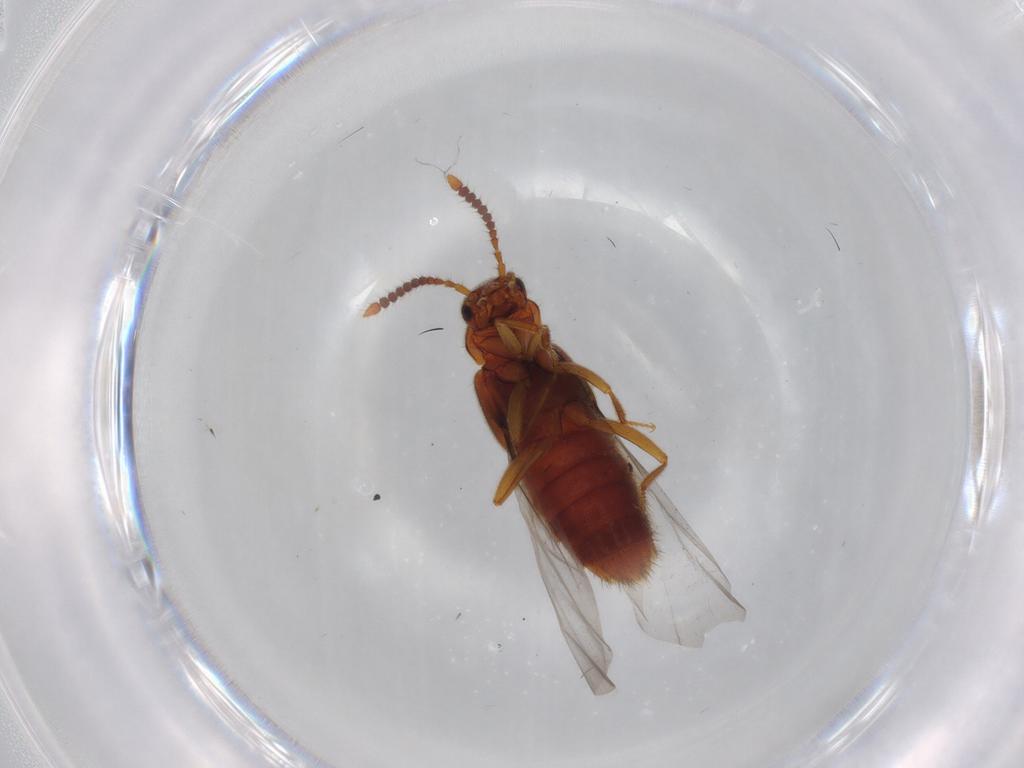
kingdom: Animalia
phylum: Arthropoda
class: Insecta
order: Coleoptera
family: Staphylinidae
